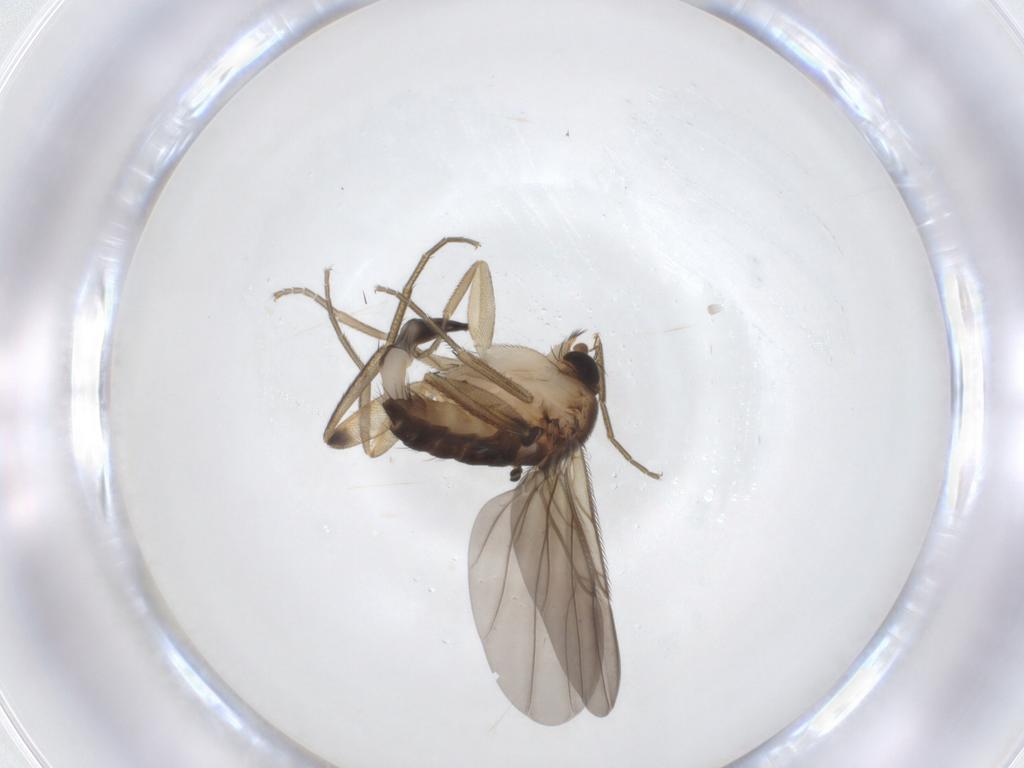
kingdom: Animalia
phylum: Arthropoda
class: Insecta
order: Diptera
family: Phoridae
